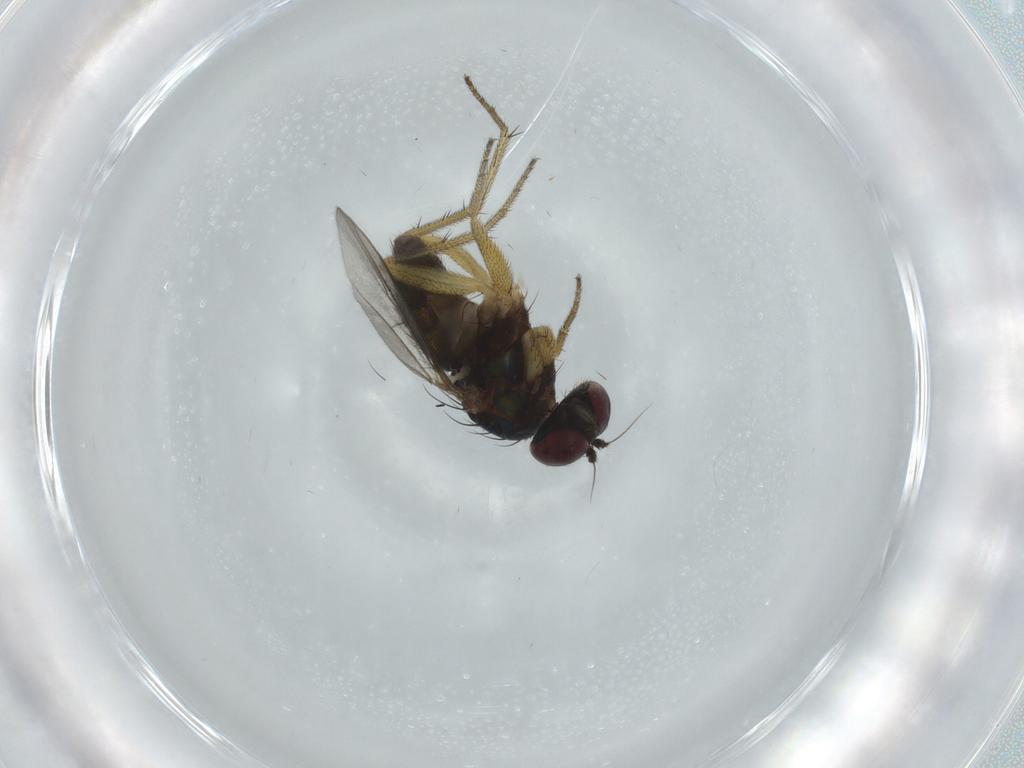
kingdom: Animalia
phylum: Arthropoda
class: Insecta
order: Diptera
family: Dolichopodidae
